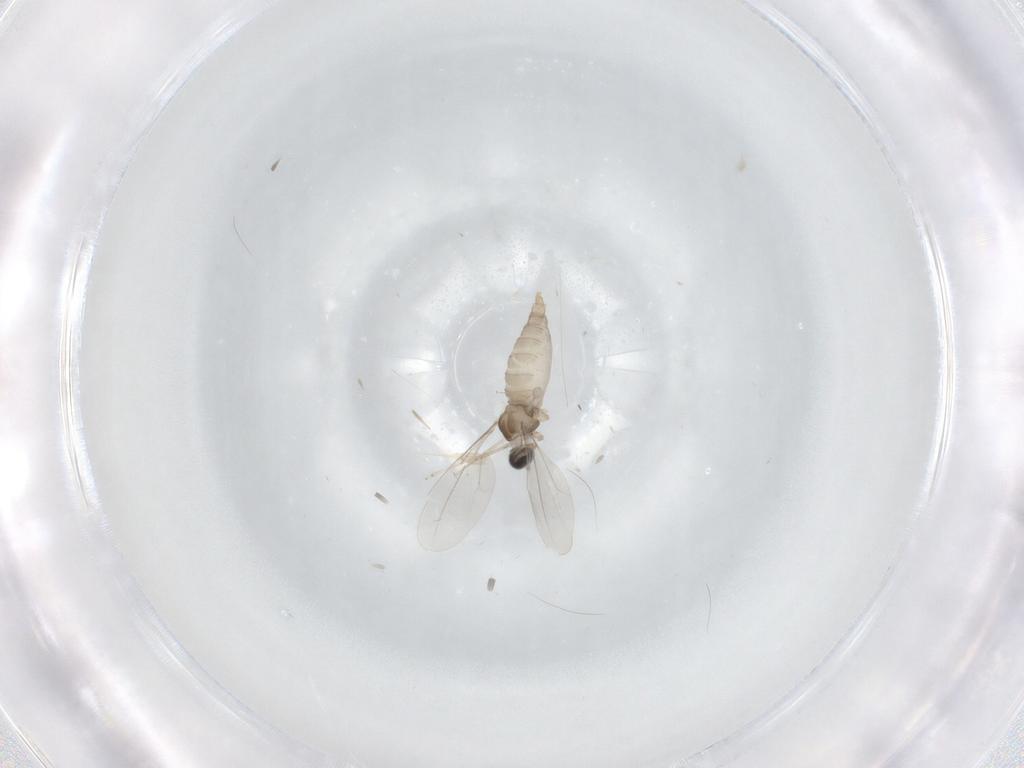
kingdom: Animalia
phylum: Arthropoda
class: Insecta
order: Diptera
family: Cecidomyiidae
